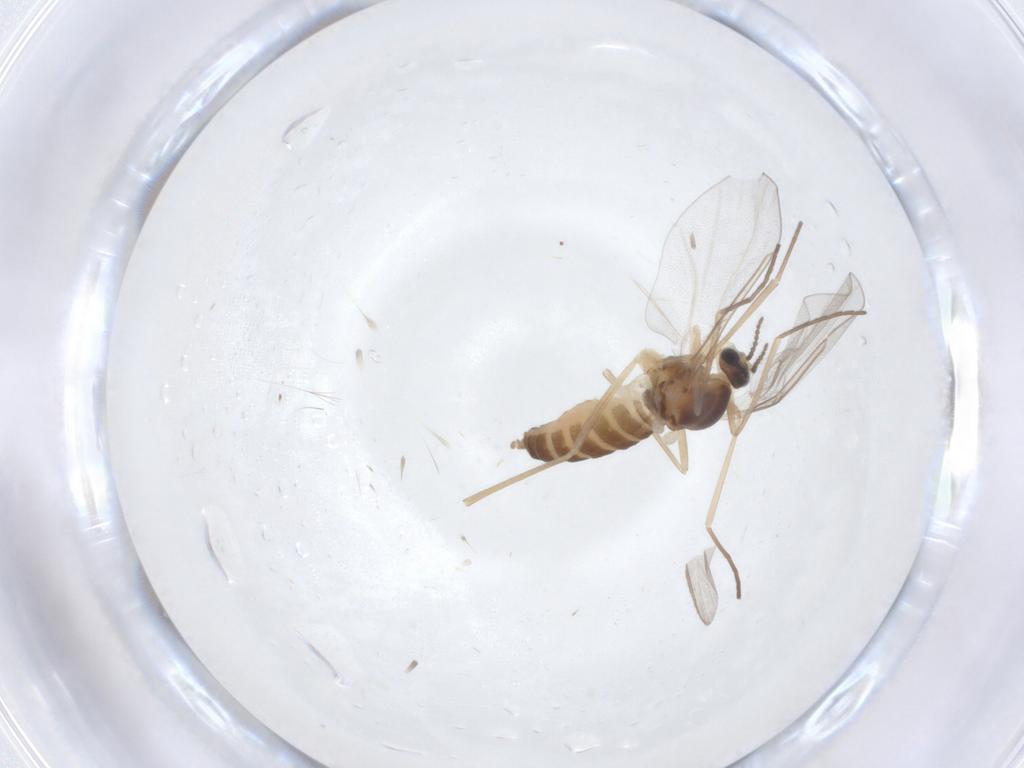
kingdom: Animalia
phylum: Arthropoda
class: Insecta
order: Diptera
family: Cecidomyiidae
